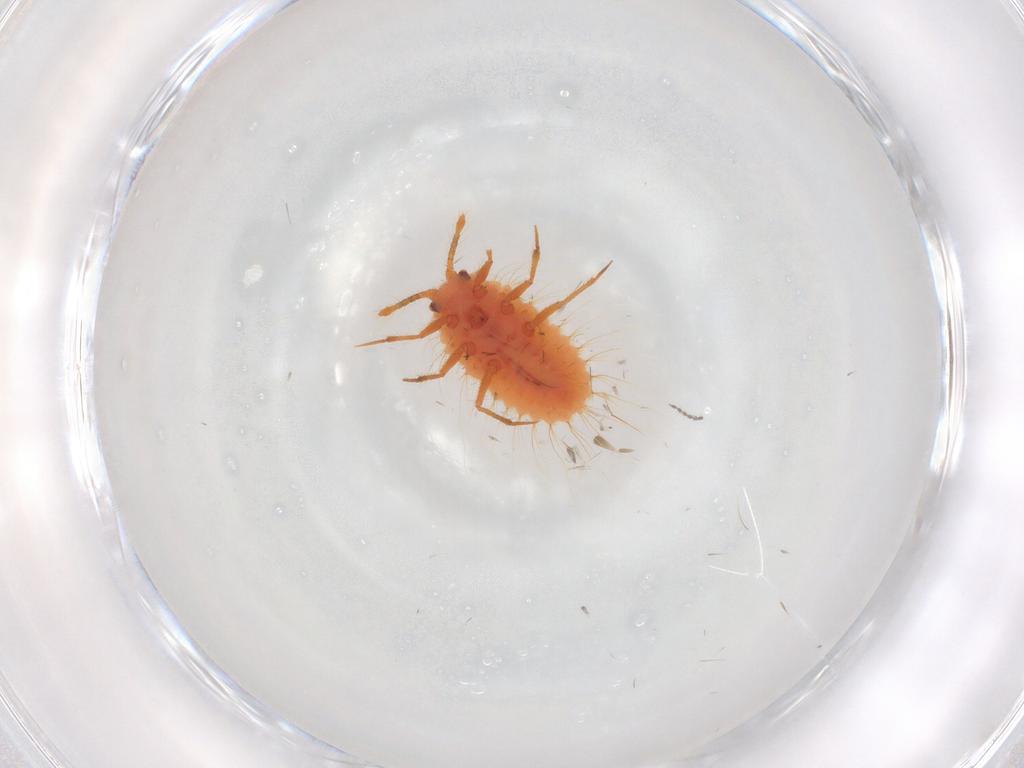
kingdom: Animalia
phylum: Arthropoda
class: Insecta
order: Hemiptera
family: Coccoidea_incertae_sedis
